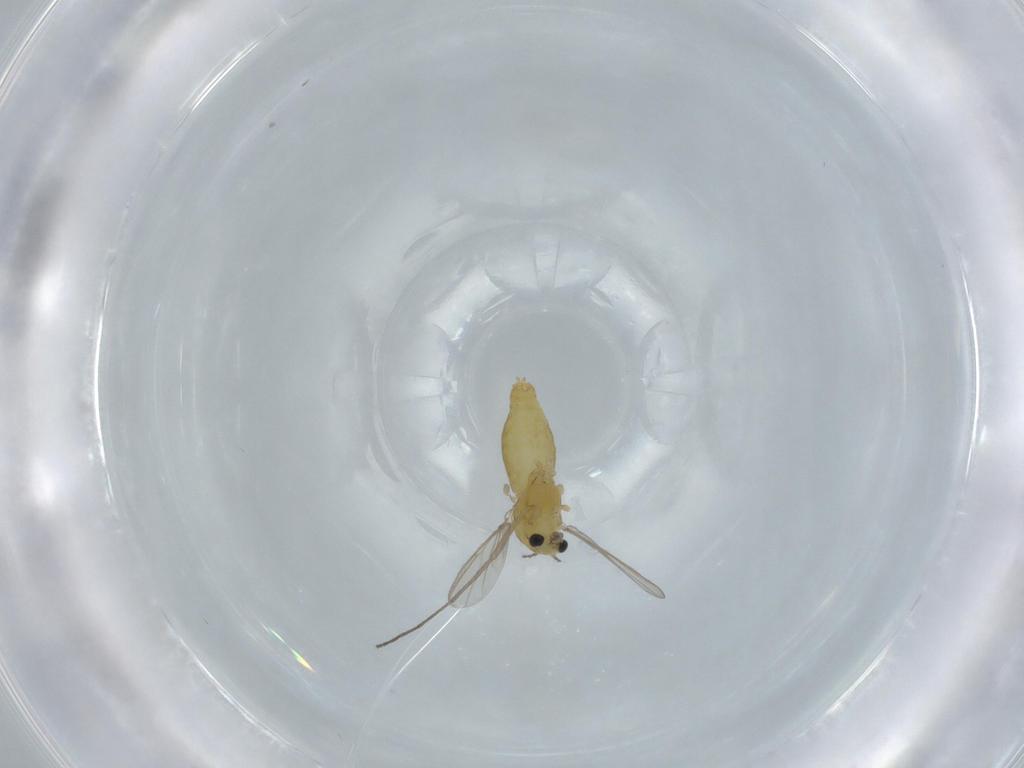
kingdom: Animalia
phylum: Arthropoda
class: Insecta
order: Diptera
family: Chironomidae
